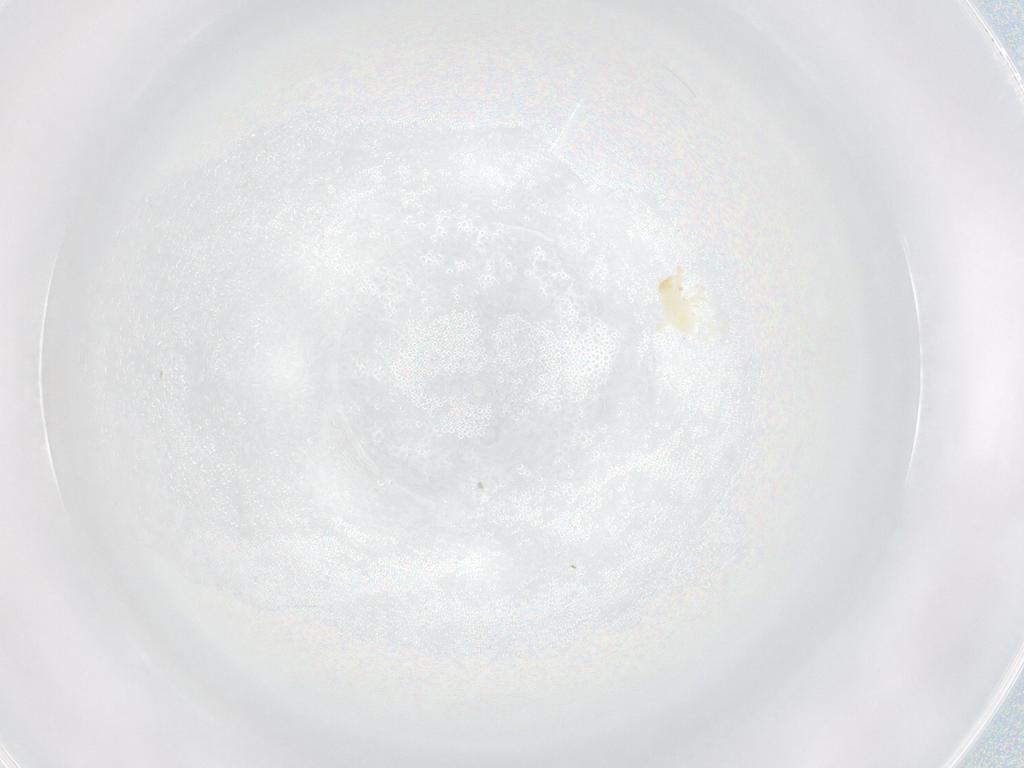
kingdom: Animalia
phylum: Arthropoda
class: Arachnida
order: Trombidiformes
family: Erythraeidae
